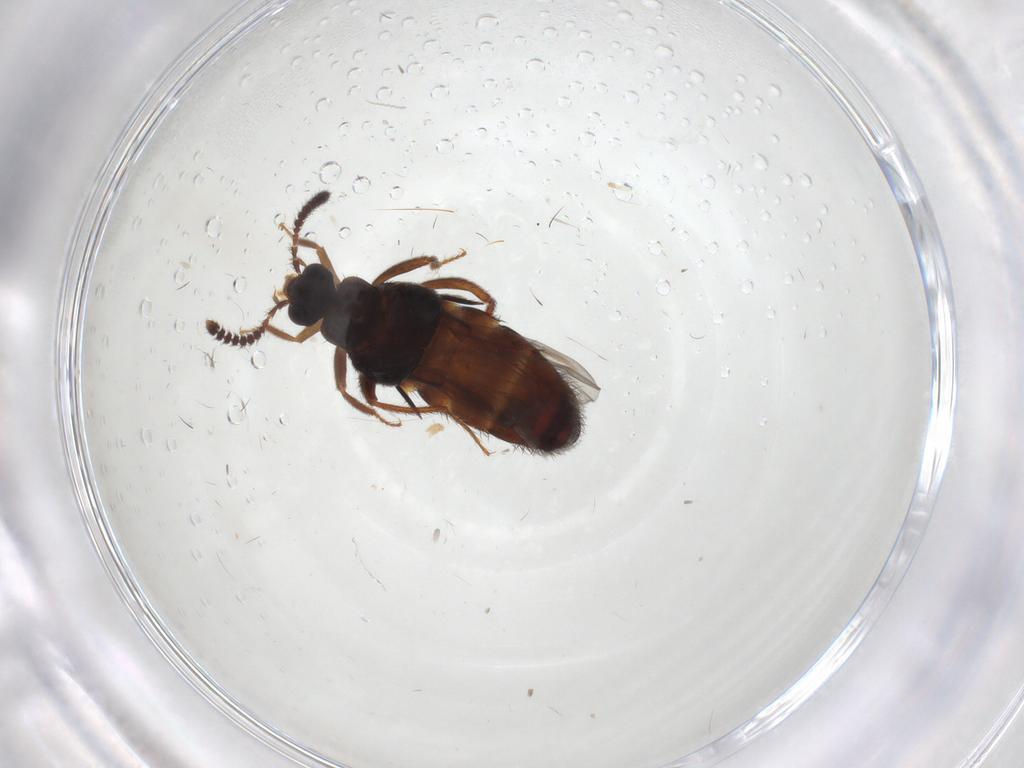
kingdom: Animalia
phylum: Arthropoda
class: Insecta
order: Coleoptera
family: Staphylinidae
